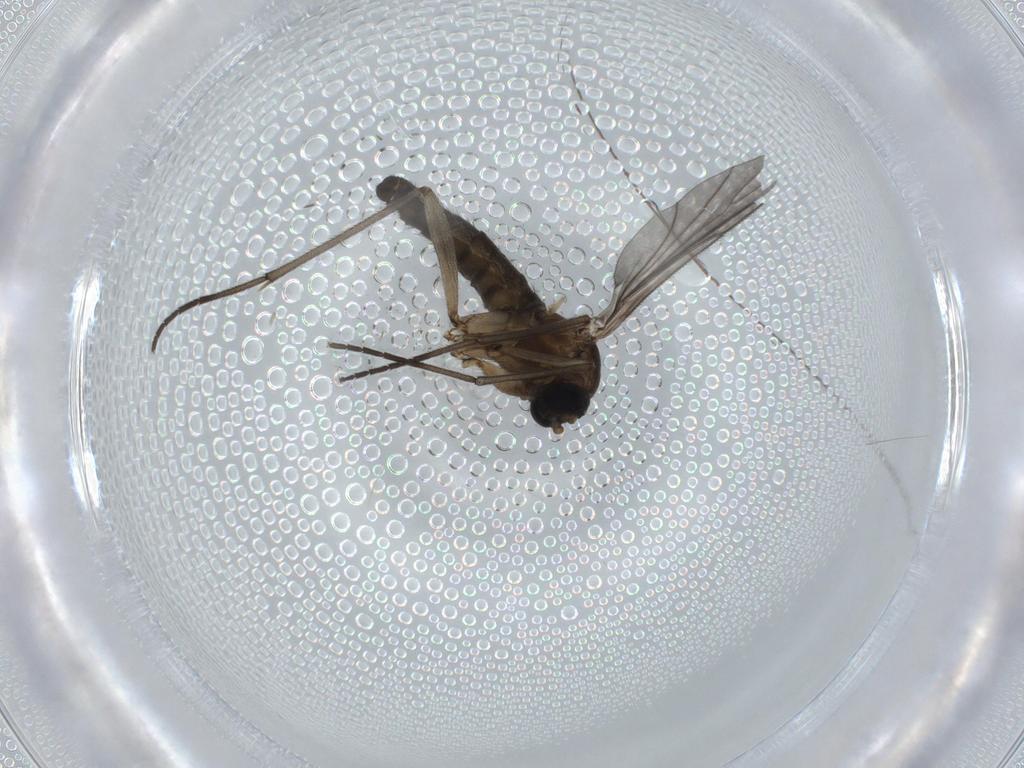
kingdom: Animalia
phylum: Arthropoda
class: Insecta
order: Diptera
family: Sciaridae
